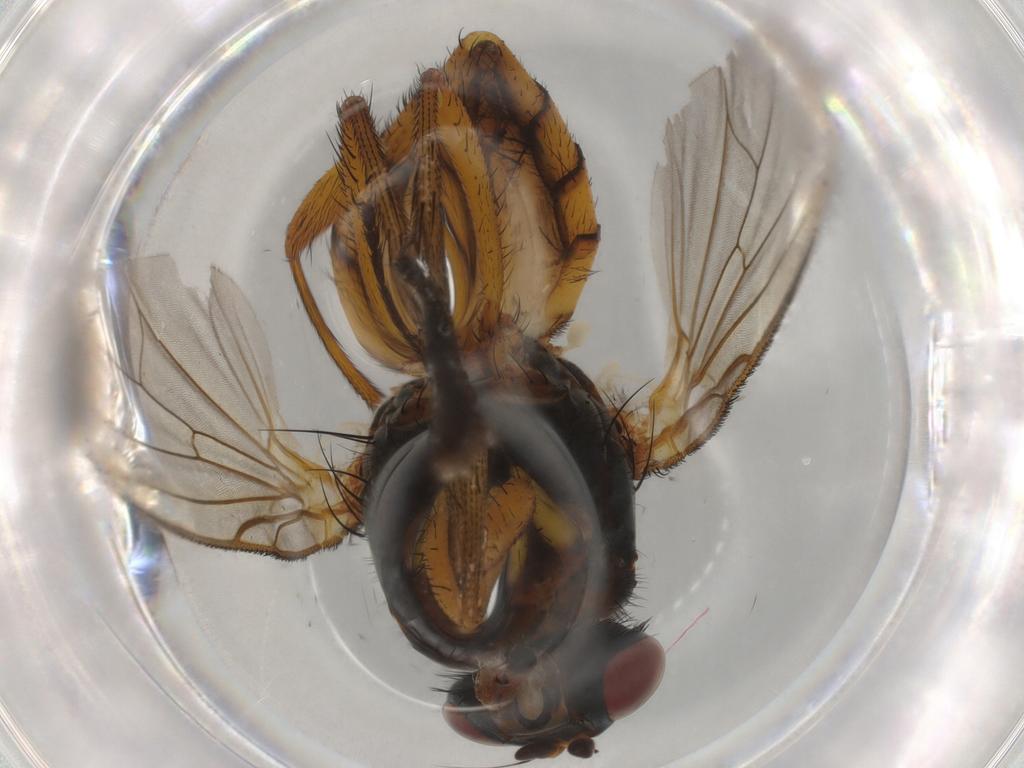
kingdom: Animalia
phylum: Arthropoda
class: Insecta
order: Diptera
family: Anthomyiidae
